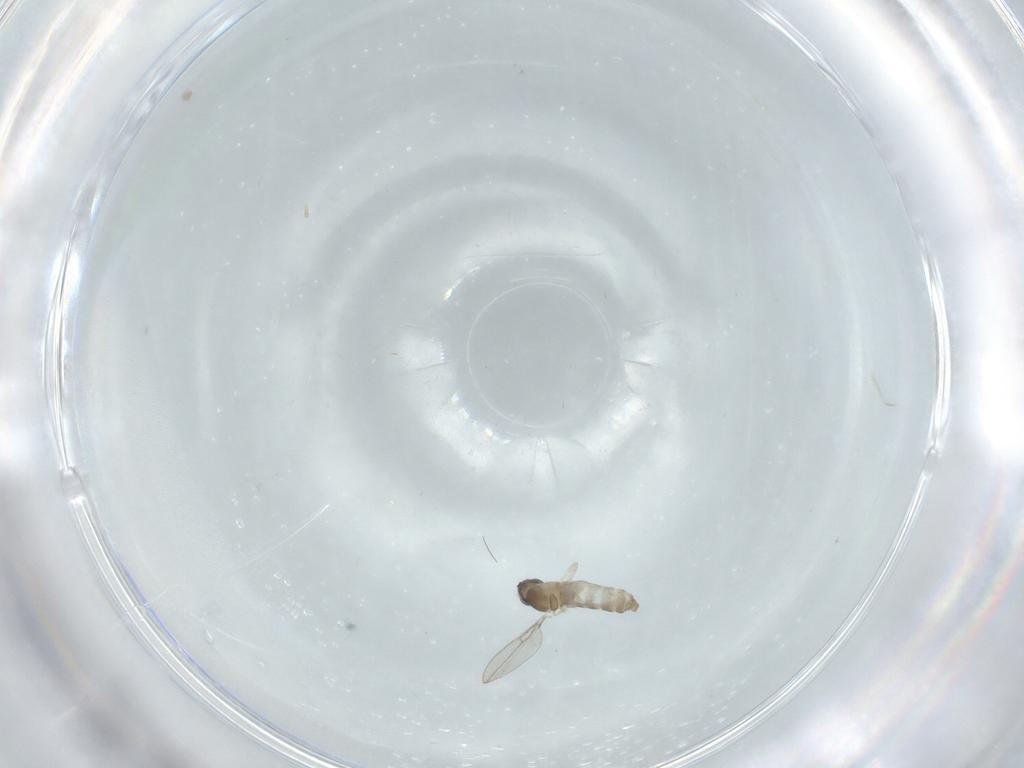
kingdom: Animalia
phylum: Arthropoda
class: Insecta
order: Diptera
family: Cecidomyiidae
